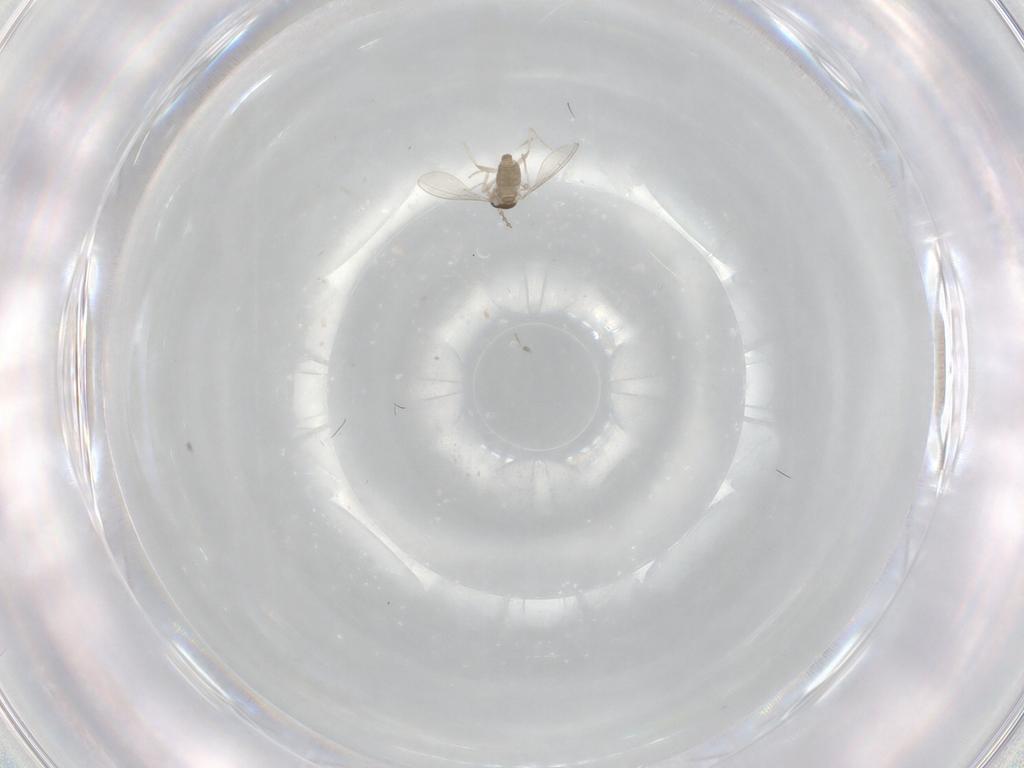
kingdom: Animalia
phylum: Arthropoda
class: Insecta
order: Diptera
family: Cecidomyiidae
